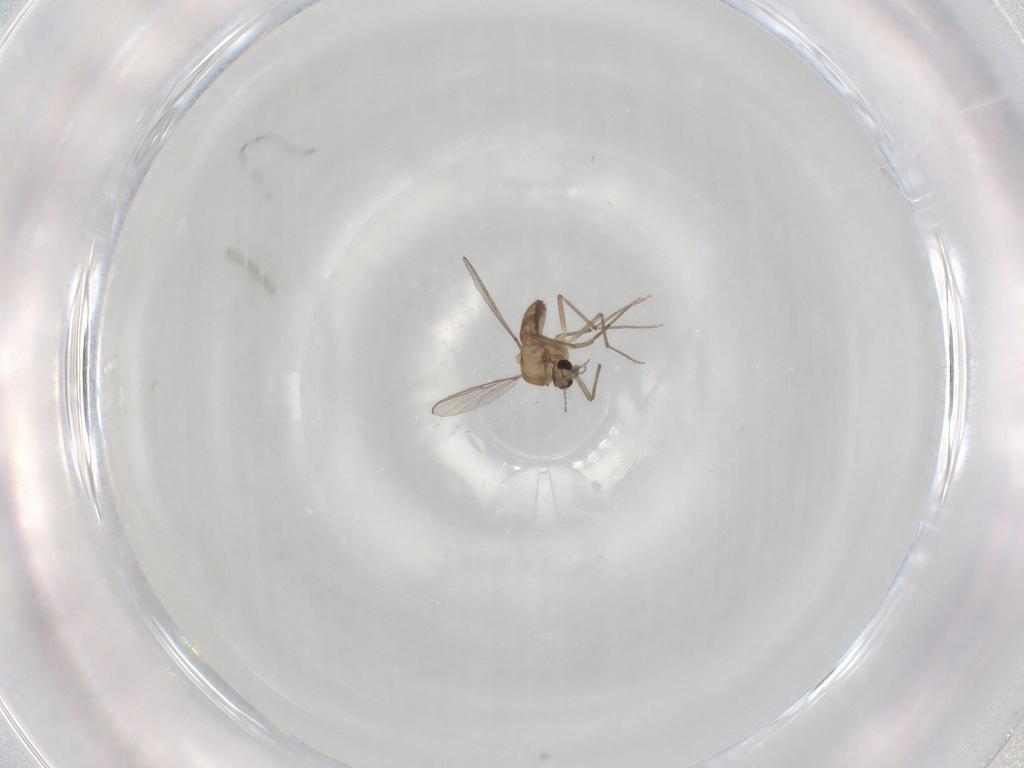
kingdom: Animalia
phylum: Arthropoda
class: Insecta
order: Diptera
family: Chironomidae
